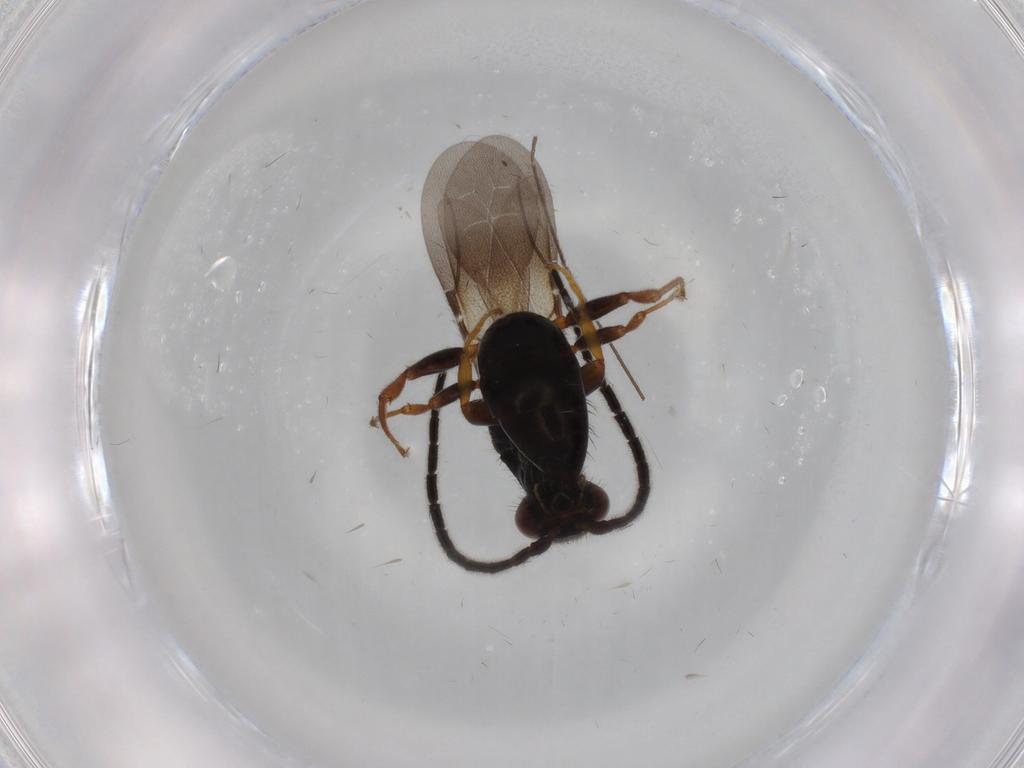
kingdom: Animalia
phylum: Arthropoda
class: Insecta
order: Hymenoptera
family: Bethylidae
